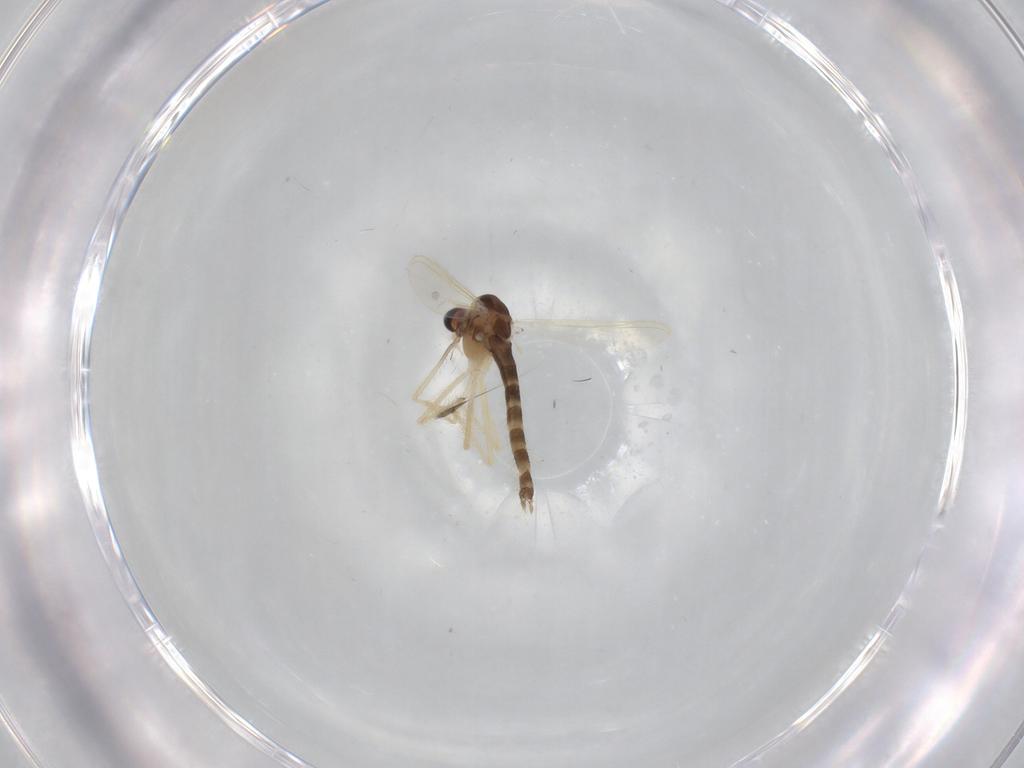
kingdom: Animalia
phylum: Arthropoda
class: Insecta
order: Diptera
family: Chironomidae
